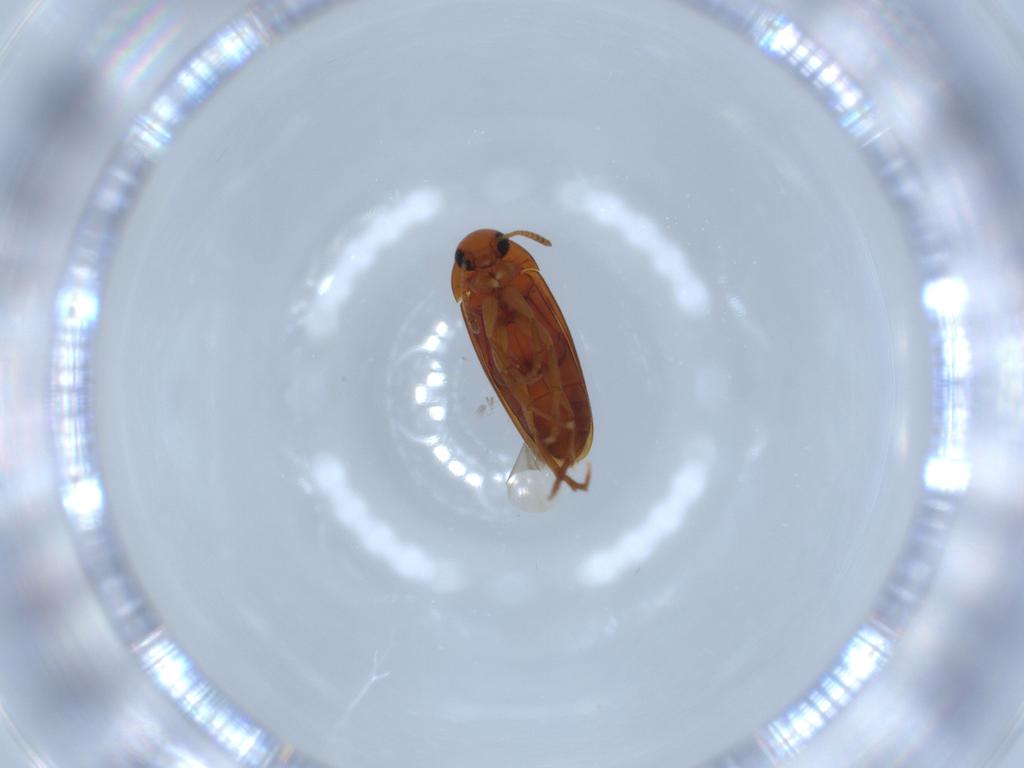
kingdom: Animalia
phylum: Arthropoda
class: Insecta
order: Coleoptera
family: Scraptiidae
